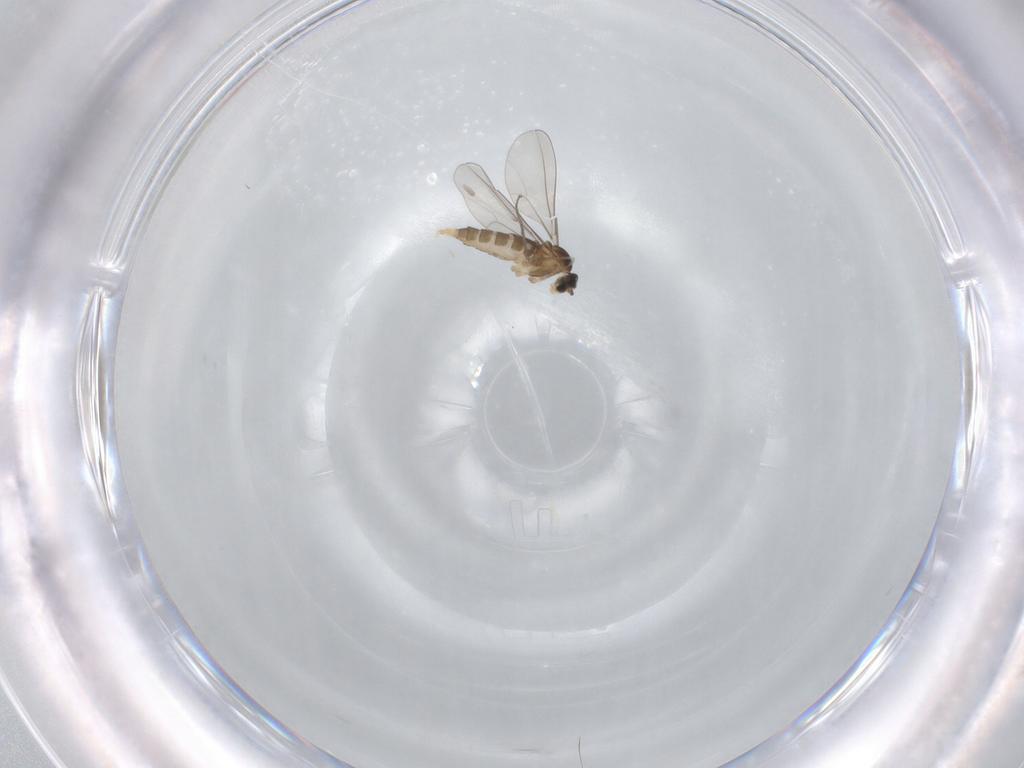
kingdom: Animalia
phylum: Arthropoda
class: Insecta
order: Diptera
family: Cecidomyiidae
